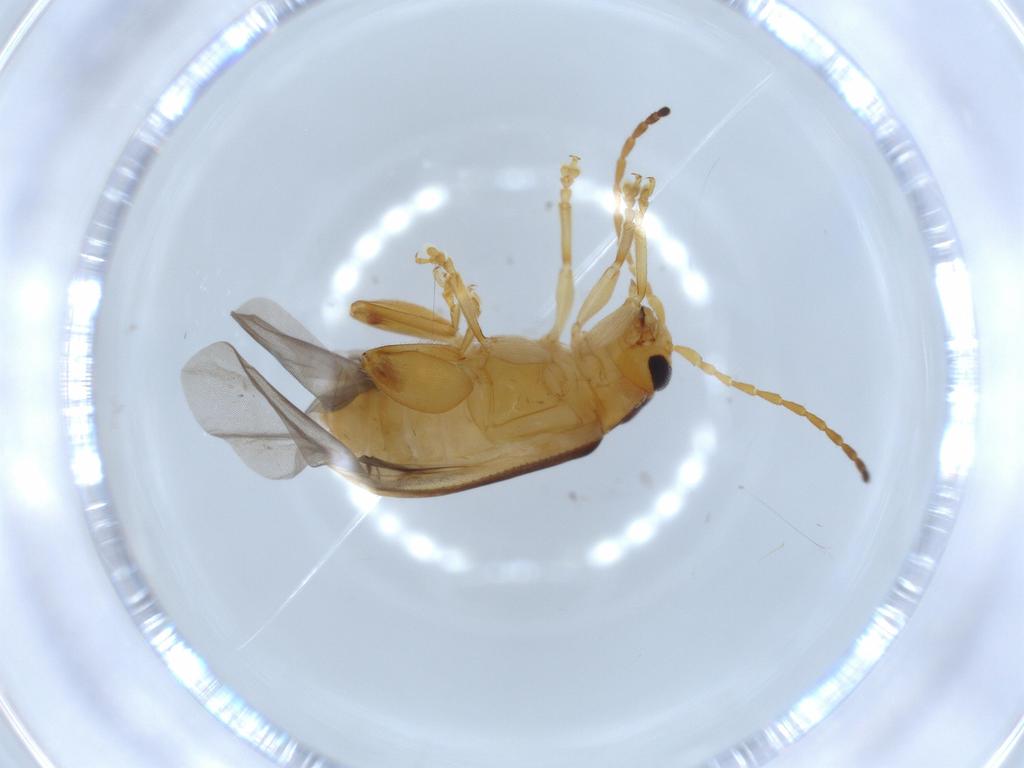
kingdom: Animalia
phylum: Arthropoda
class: Insecta
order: Coleoptera
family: Chrysomelidae
